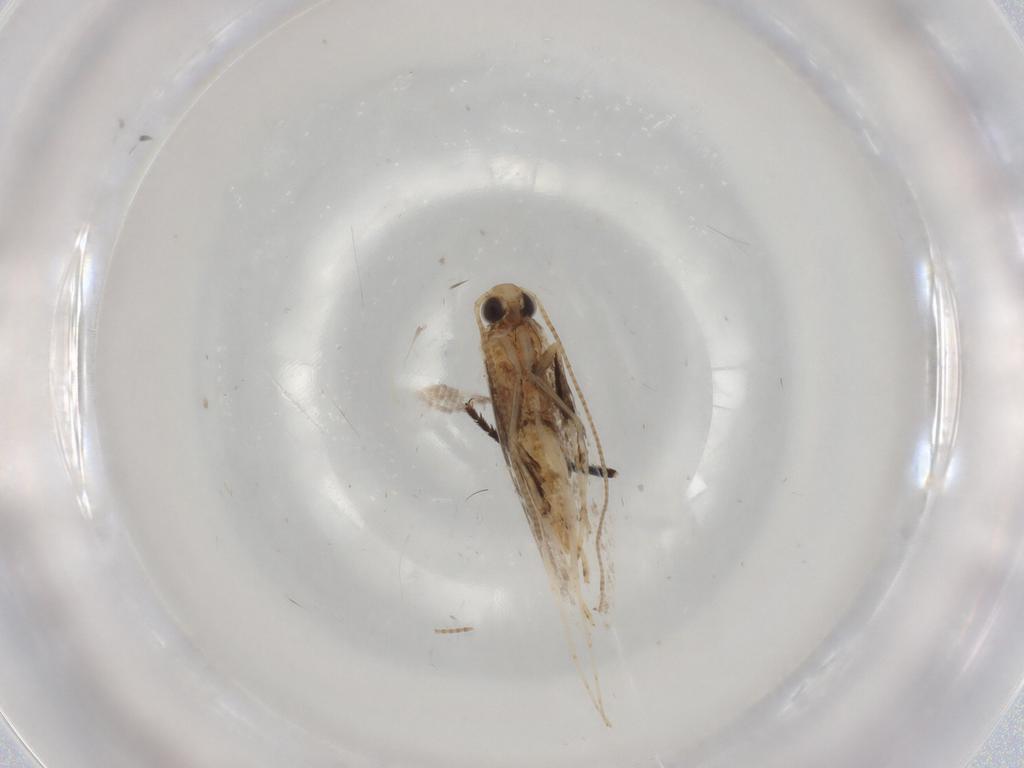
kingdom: Animalia
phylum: Arthropoda
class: Insecta
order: Lepidoptera
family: Gracillariidae
